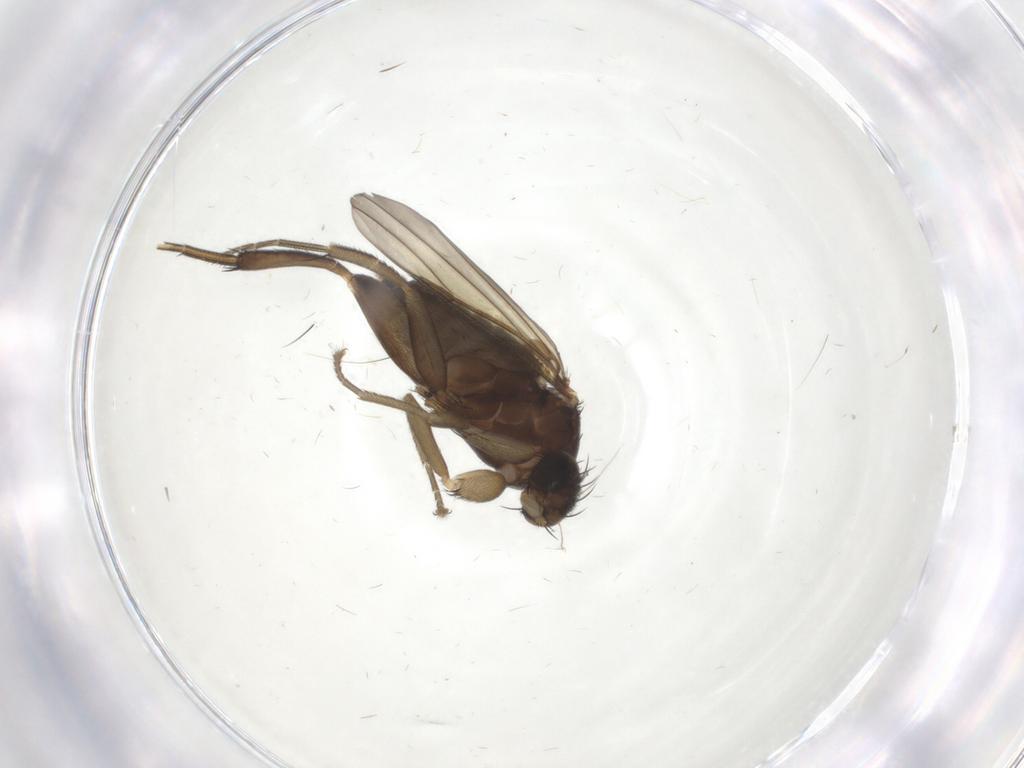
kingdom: Animalia
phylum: Arthropoda
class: Insecta
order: Diptera
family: Phoridae
